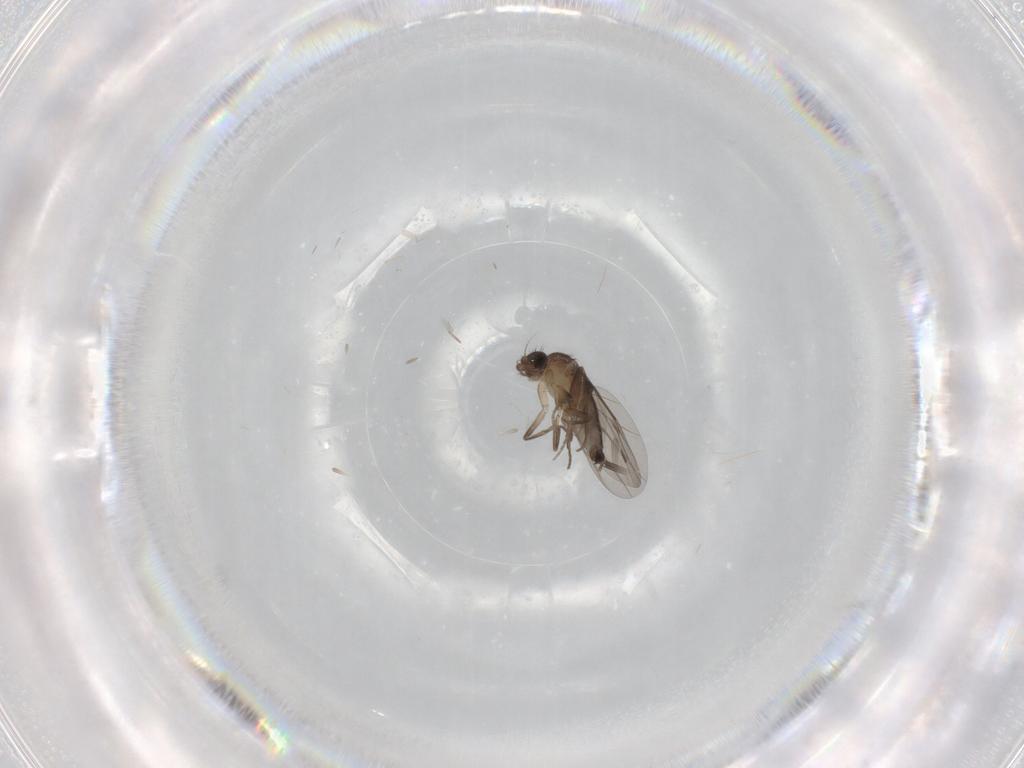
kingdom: Animalia
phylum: Arthropoda
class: Insecta
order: Diptera
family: Phoridae
